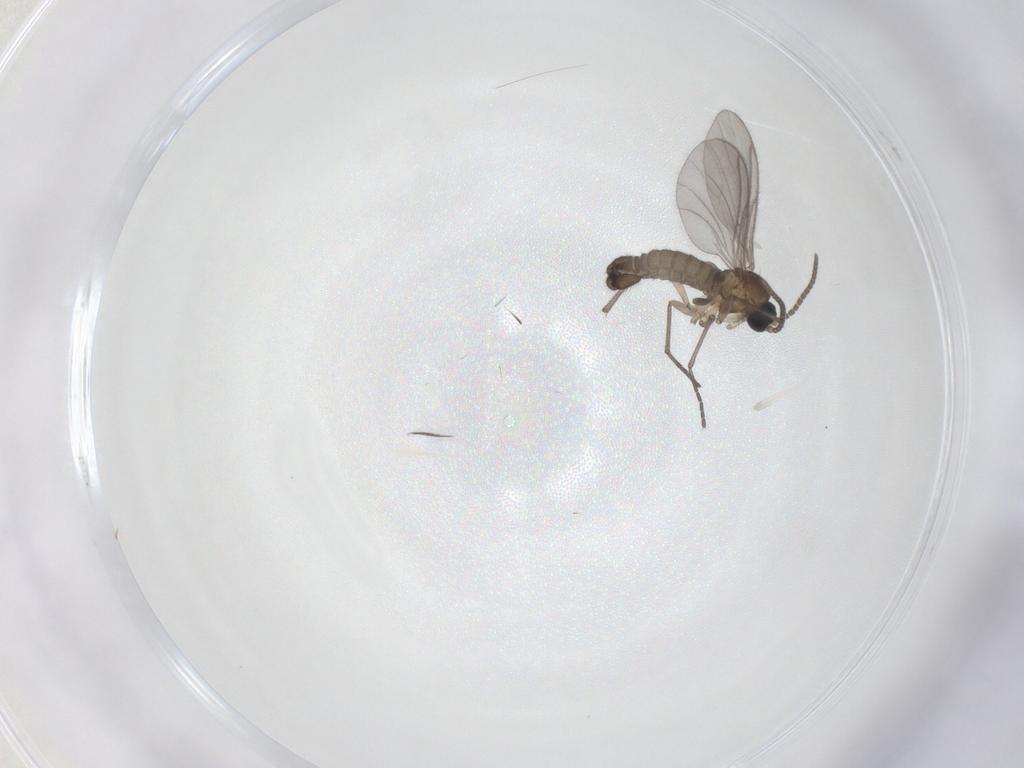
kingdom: Animalia
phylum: Arthropoda
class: Insecta
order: Diptera
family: Sciaridae
